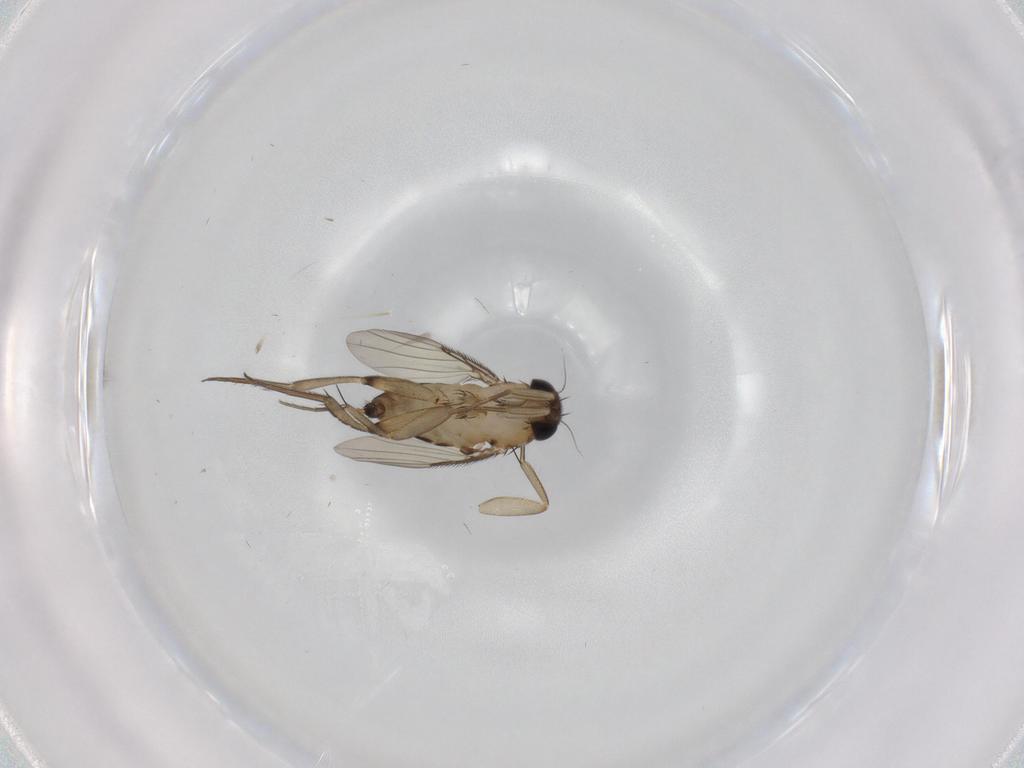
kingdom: Animalia
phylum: Arthropoda
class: Insecta
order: Diptera
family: Phoridae
